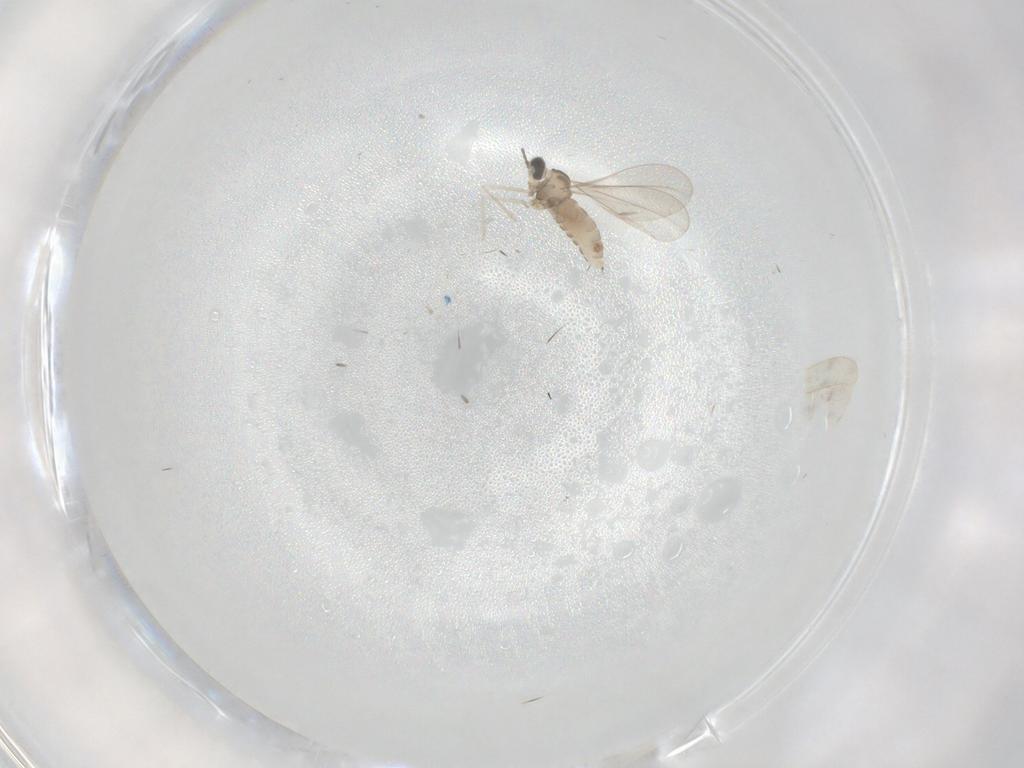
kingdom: Animalia
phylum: Arthropoda
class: Insecta
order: Diptera
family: Cecidomyiidae
